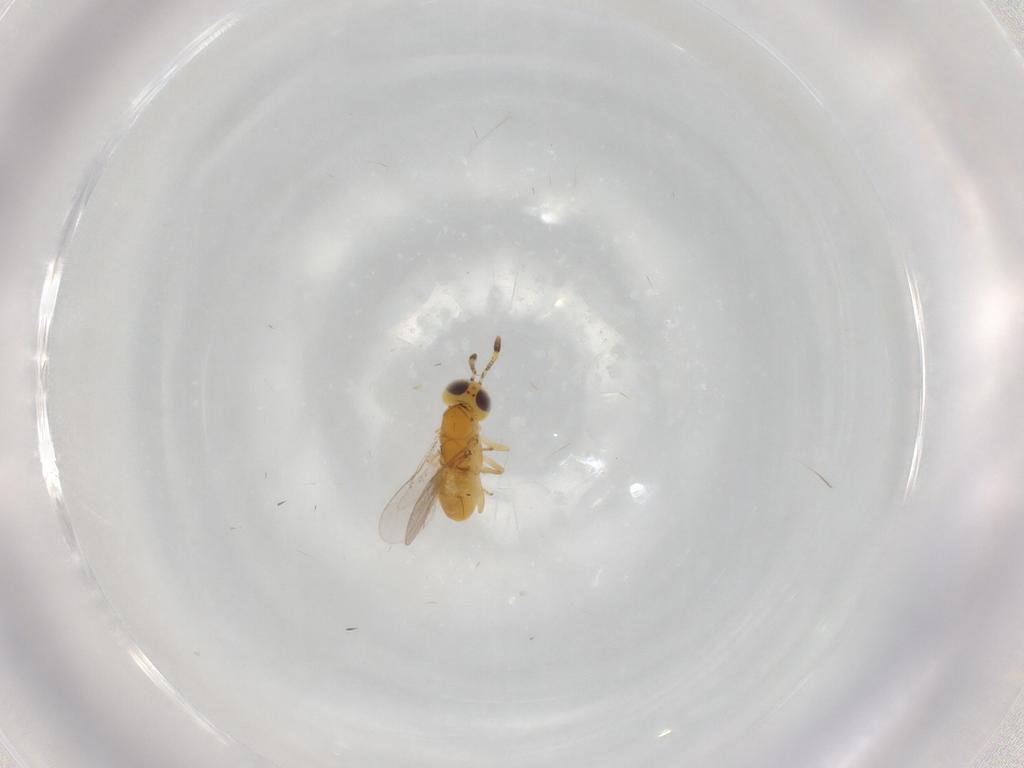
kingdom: Animalia
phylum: Arthropoda
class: Insecta
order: Hymenoptera
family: Encyrtidae
